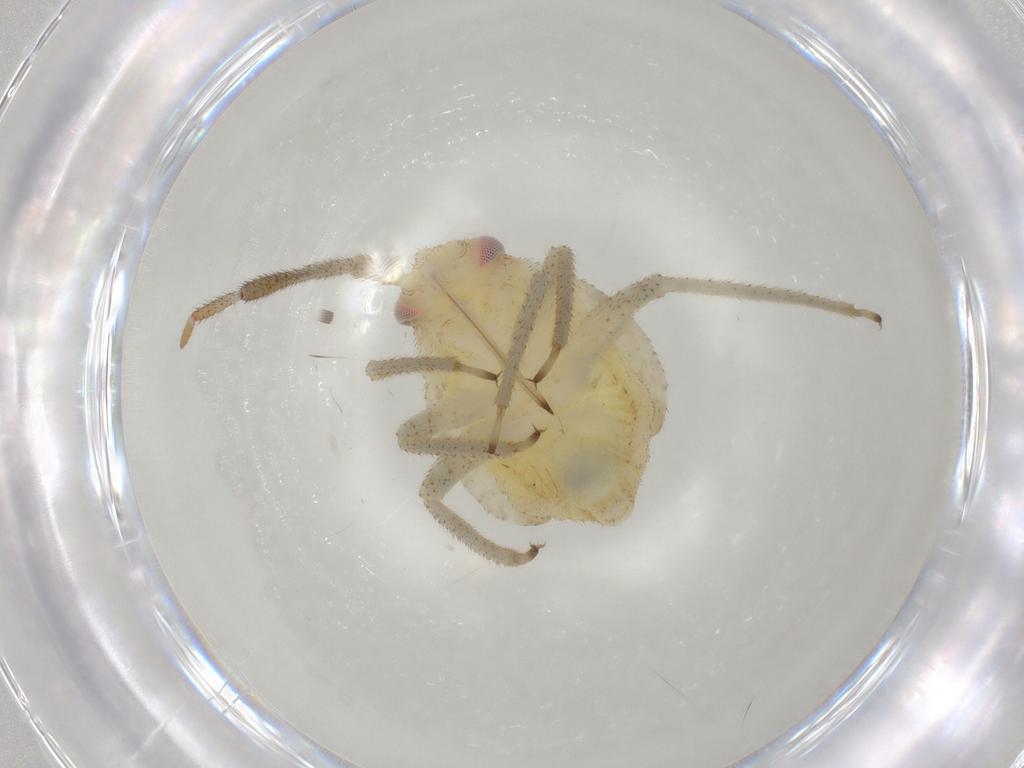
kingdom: Animalia
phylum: Arthropoda
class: Insecta
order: Hemiptera
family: Miridae
